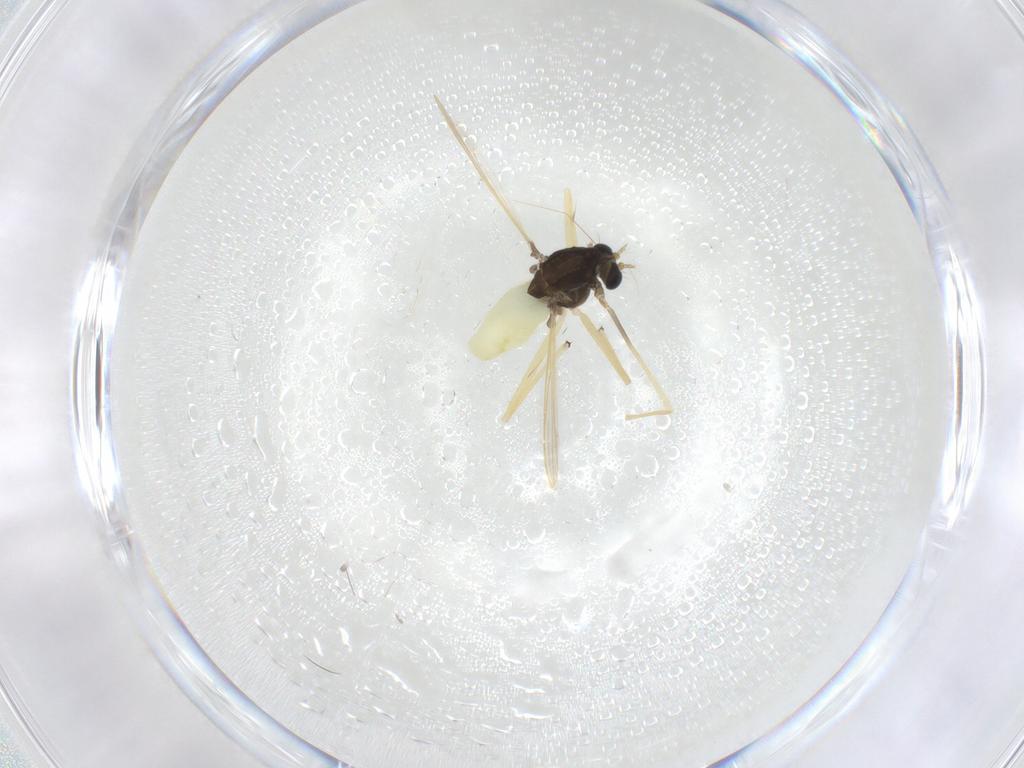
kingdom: Animalia
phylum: Arthropoda
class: Insecta
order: Diptera
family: Chironomidae
